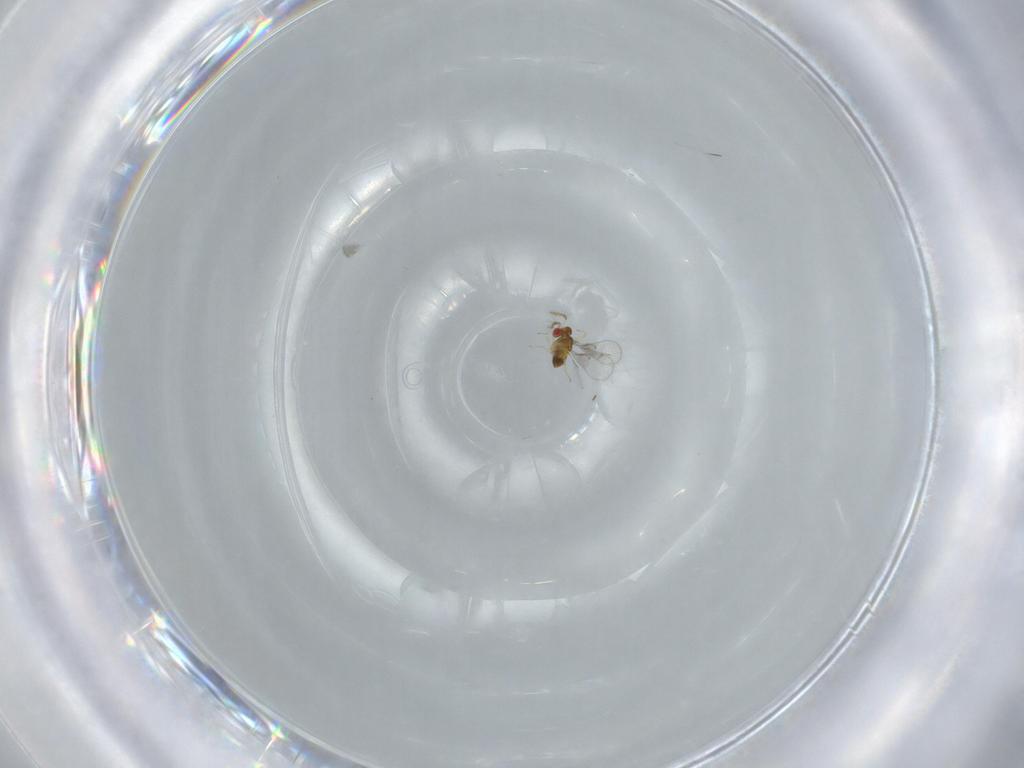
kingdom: Animalia
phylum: Arthropoda
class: Insecta
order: Hymenoptera
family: Trichogrammatidae
